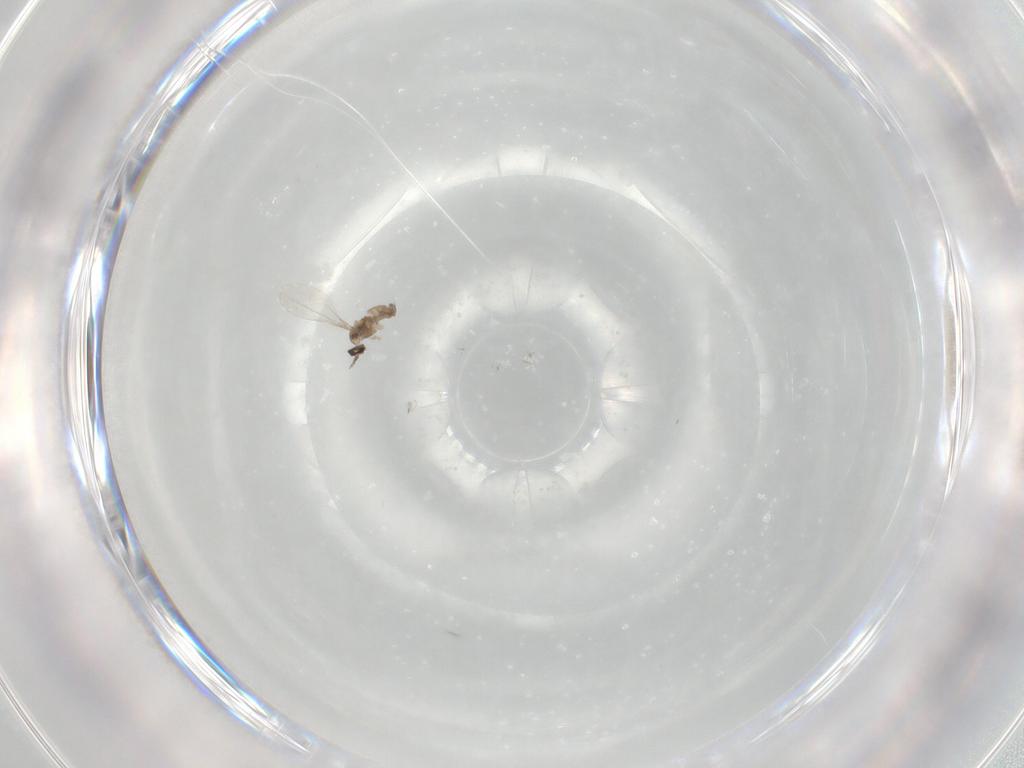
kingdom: Animalia
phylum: Arthropoda
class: Insecta
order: Diptera
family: Cecidomyiidae
